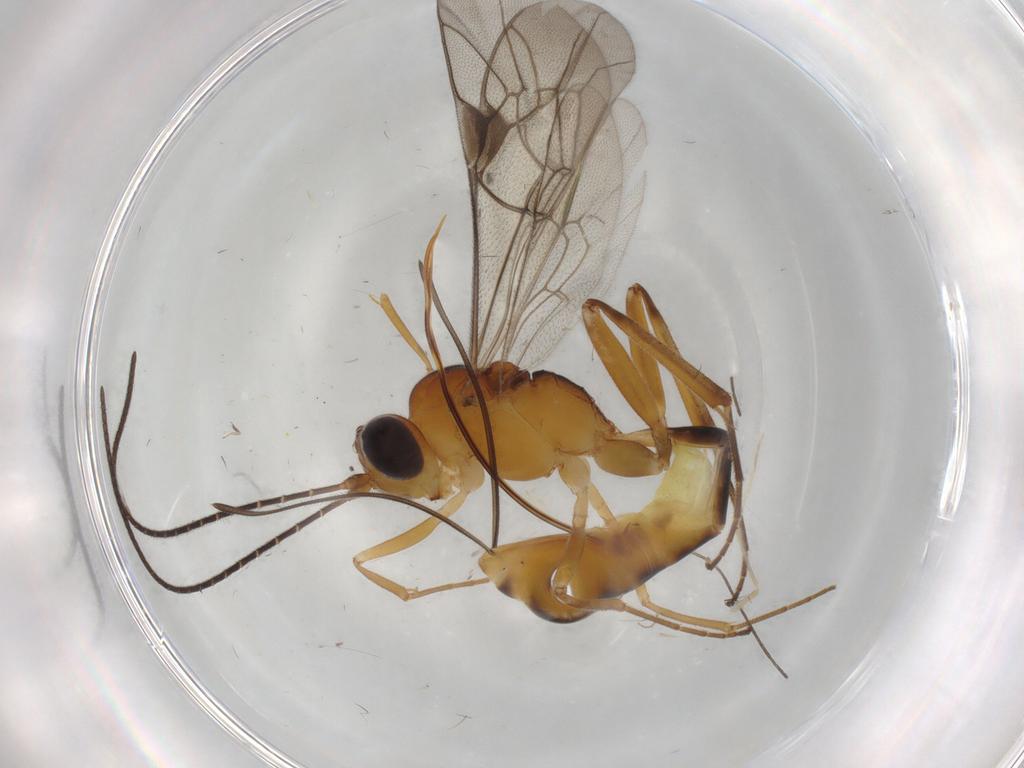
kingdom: Animalia
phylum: Arthropoda
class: Insecta
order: Hymenoptera
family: Ichneumonidae
